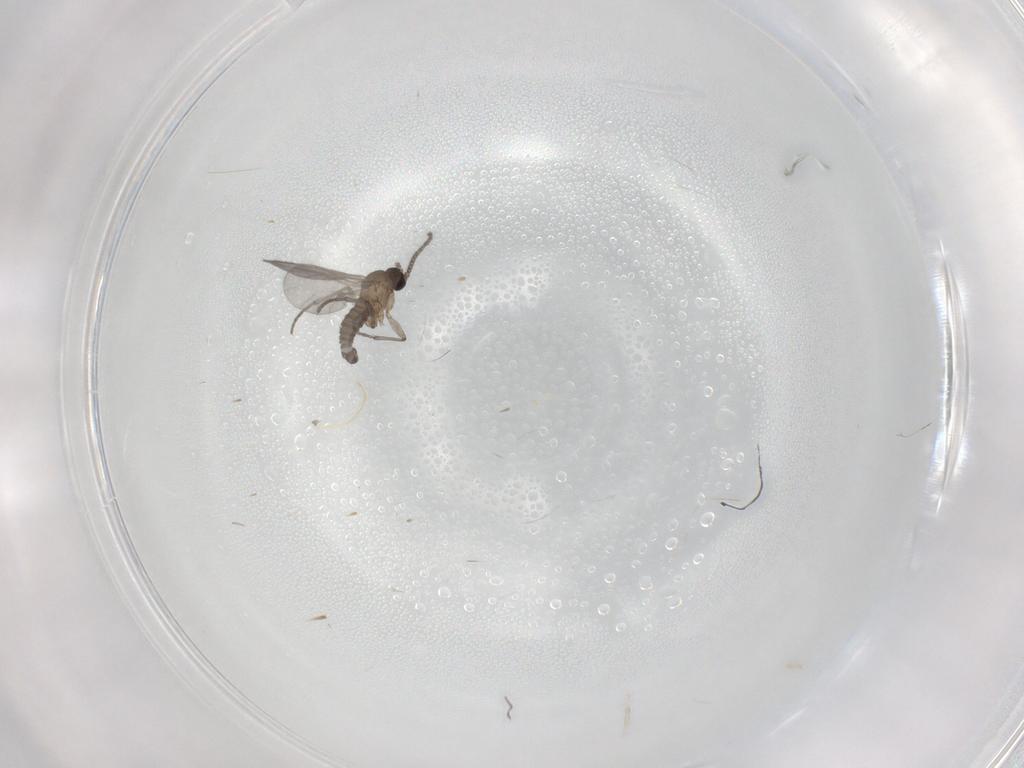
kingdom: Animalia
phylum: Arthropoda
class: Insecta
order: Diptera
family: Sciaridae
